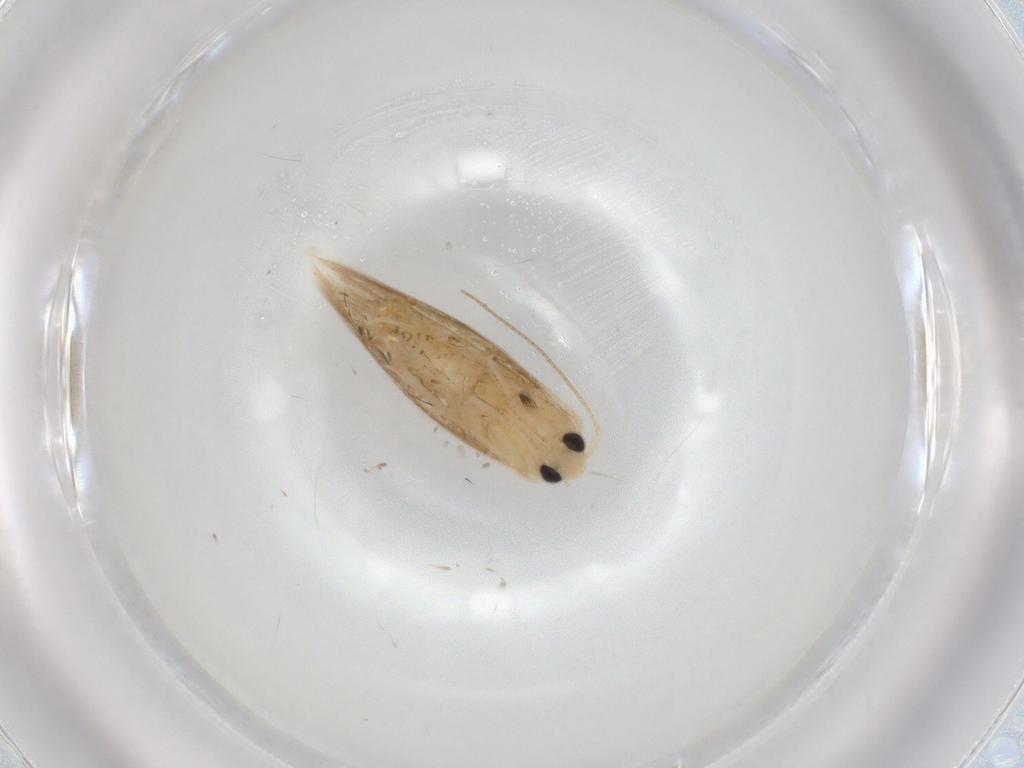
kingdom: Animalia
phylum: Arthropoda
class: Insecta
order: Lepidoptera
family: Bucculatricidae
